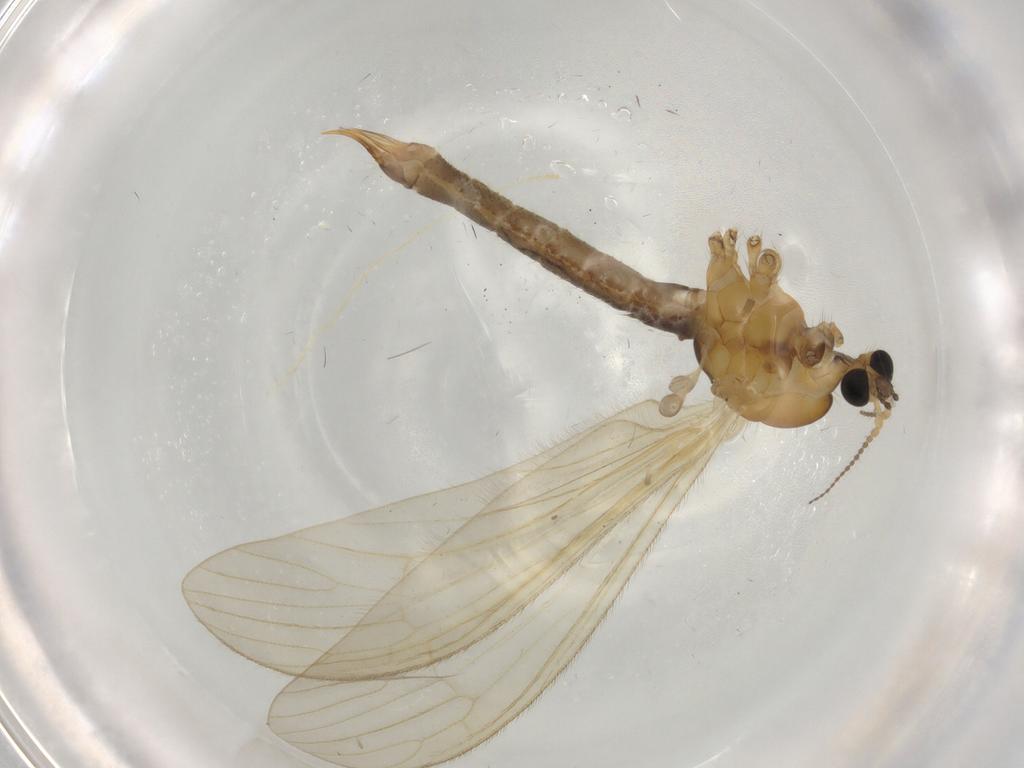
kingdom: Animalia
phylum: Arthropoda
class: Insecta
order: Diptera
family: Limoniidae
